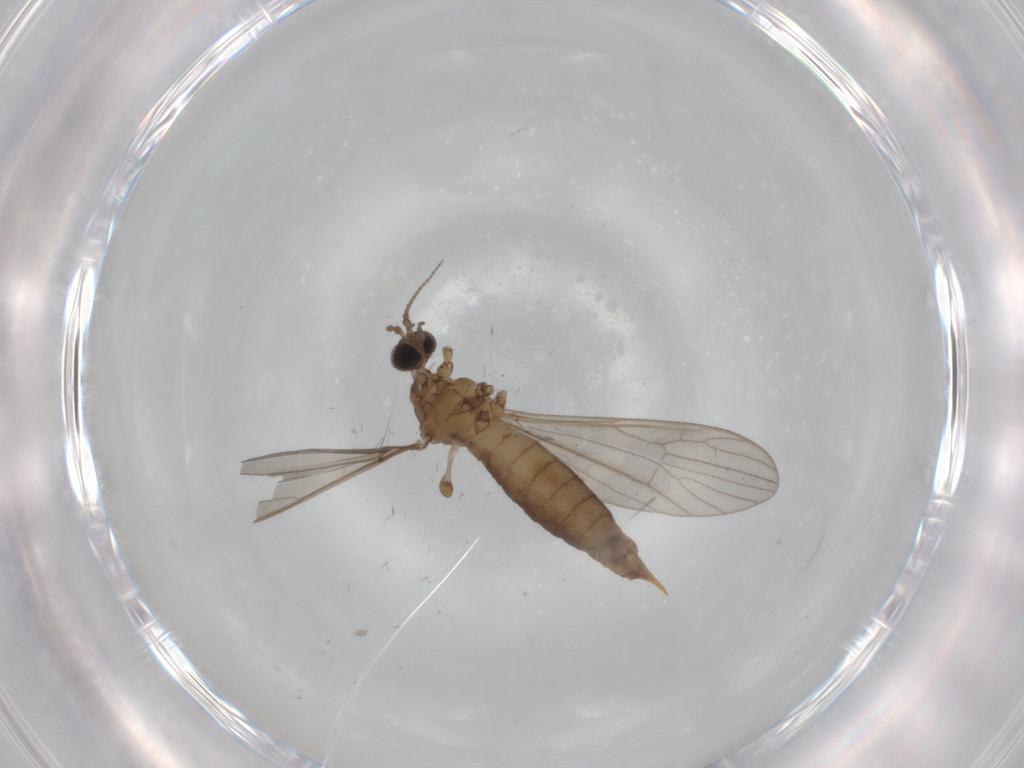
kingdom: Animalia
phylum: Arthropoda
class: Insecta
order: Diptera
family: Limoniidae
